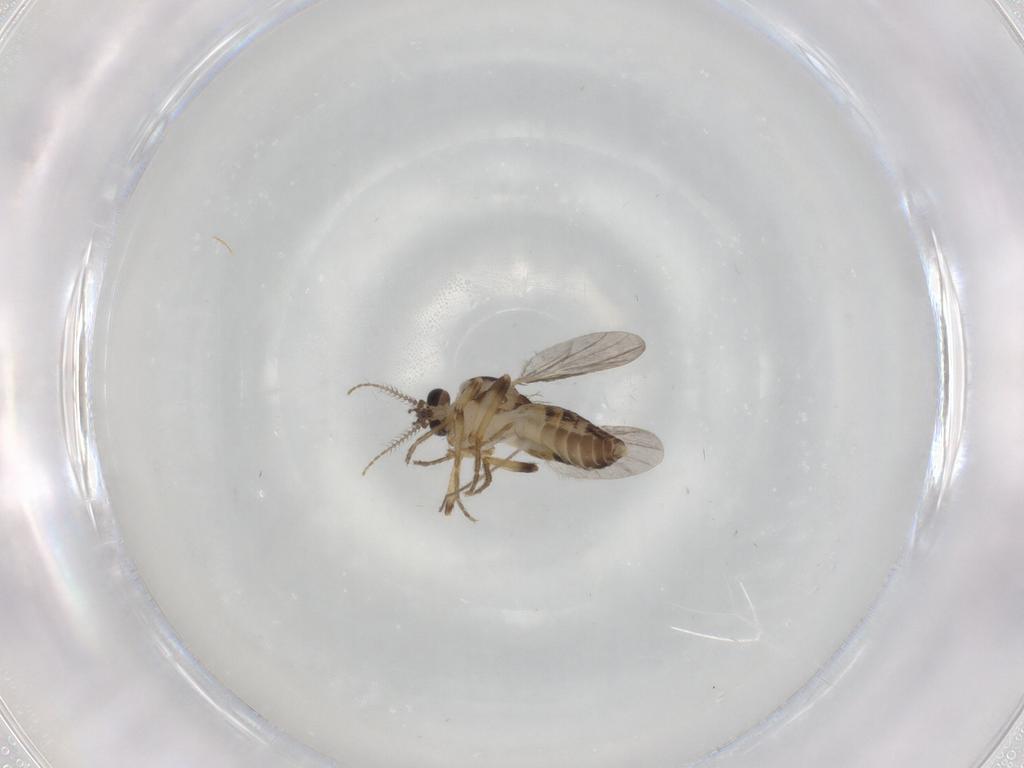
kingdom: Animalia
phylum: Arthropoda
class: Insecta
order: Diptera
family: Ceratopogonidae
